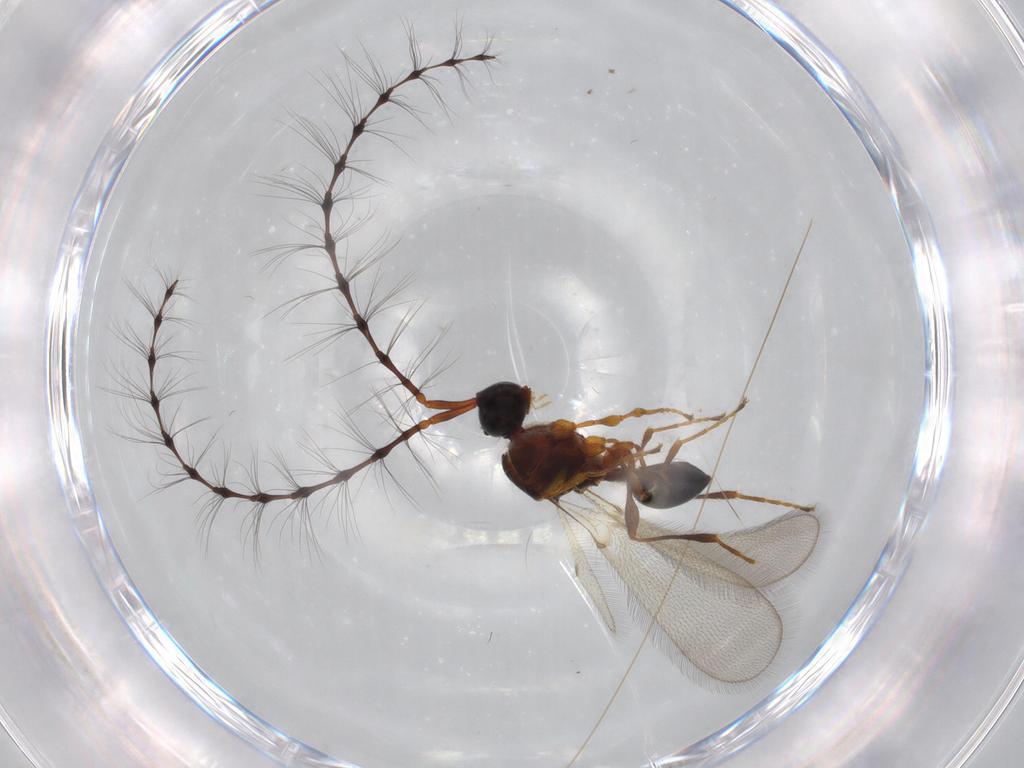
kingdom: Animalia
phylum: Arthropoda
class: Insecta
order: Hymenoptera
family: Diapriidae
